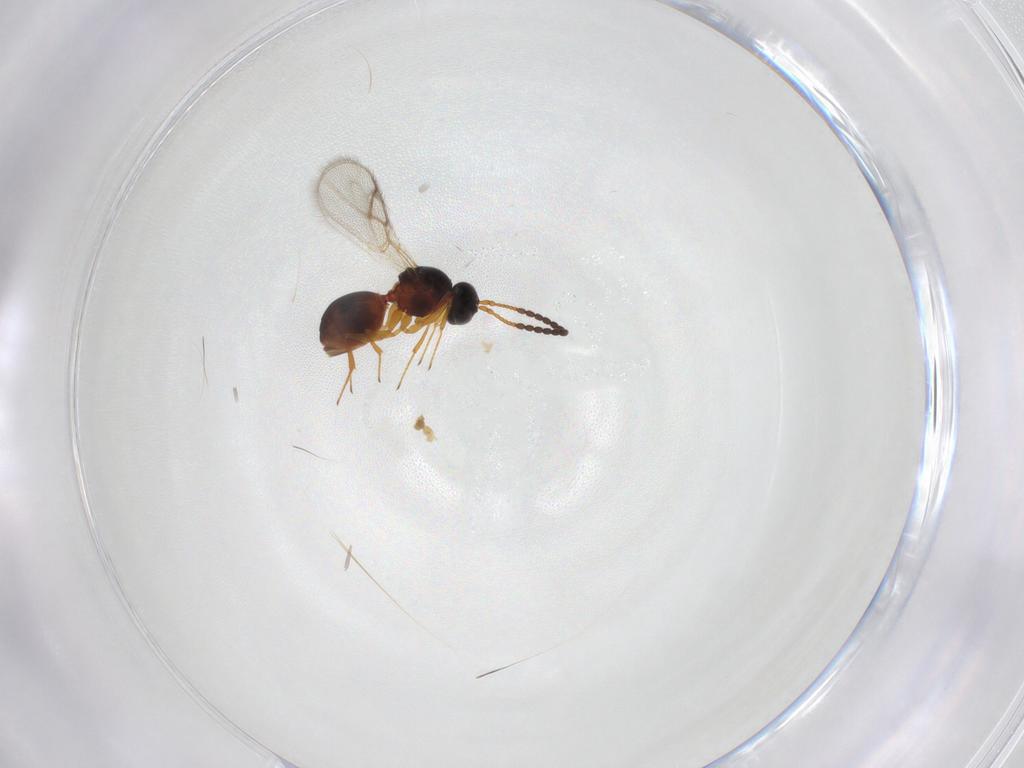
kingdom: Animalia
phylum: Arthropoda
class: Insecta
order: Hymenoptera
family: Figitidae
